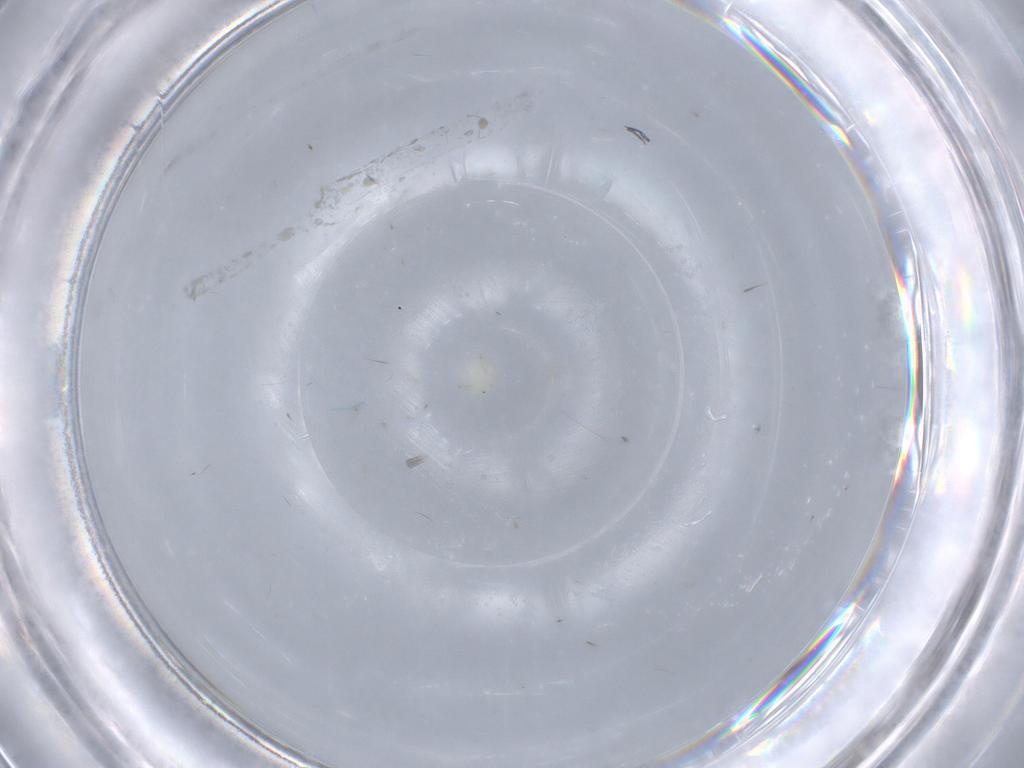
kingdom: Animalia
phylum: Arthropoda
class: Arachnida
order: Trombidiformes
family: Sperchontidae
